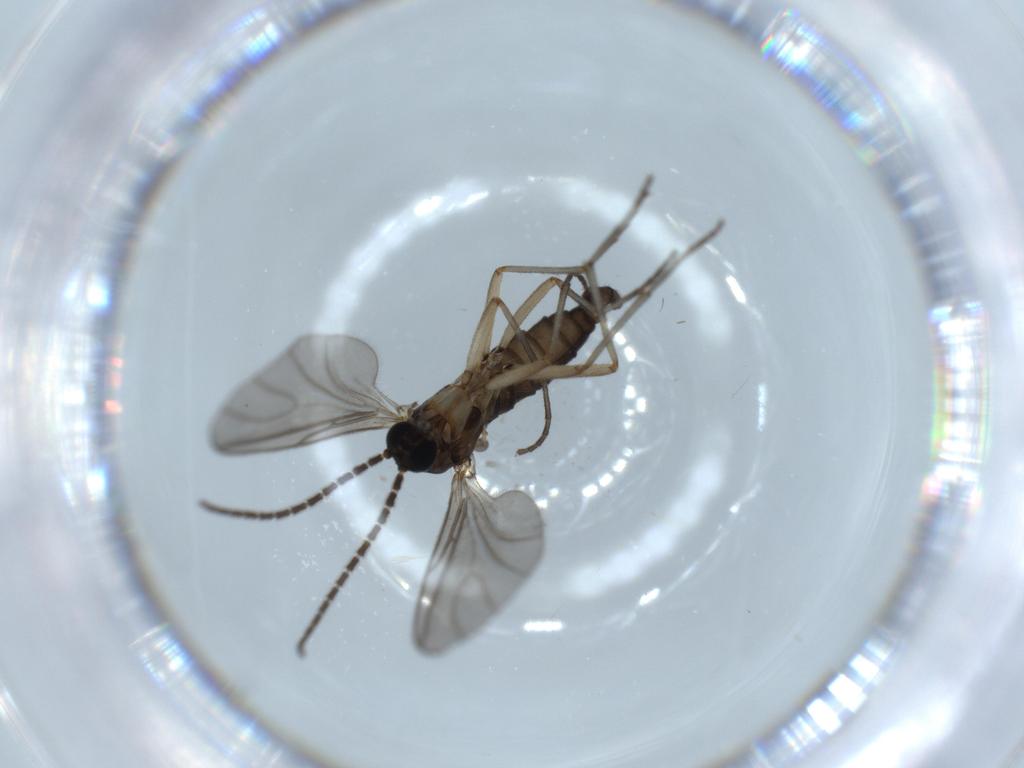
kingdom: Animalia
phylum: Arthropoda
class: Insecta
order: Diptera
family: Sciaridae
